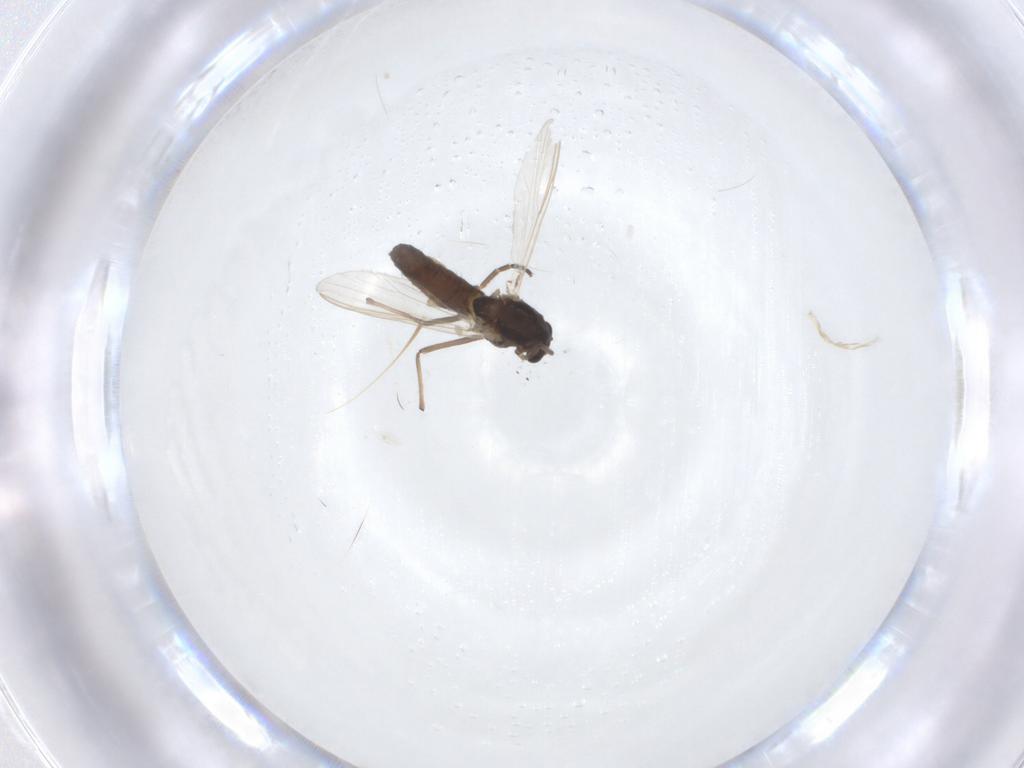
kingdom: Animalia
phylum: Arthropoda
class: Insecta
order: Diptera
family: Chironomidae
